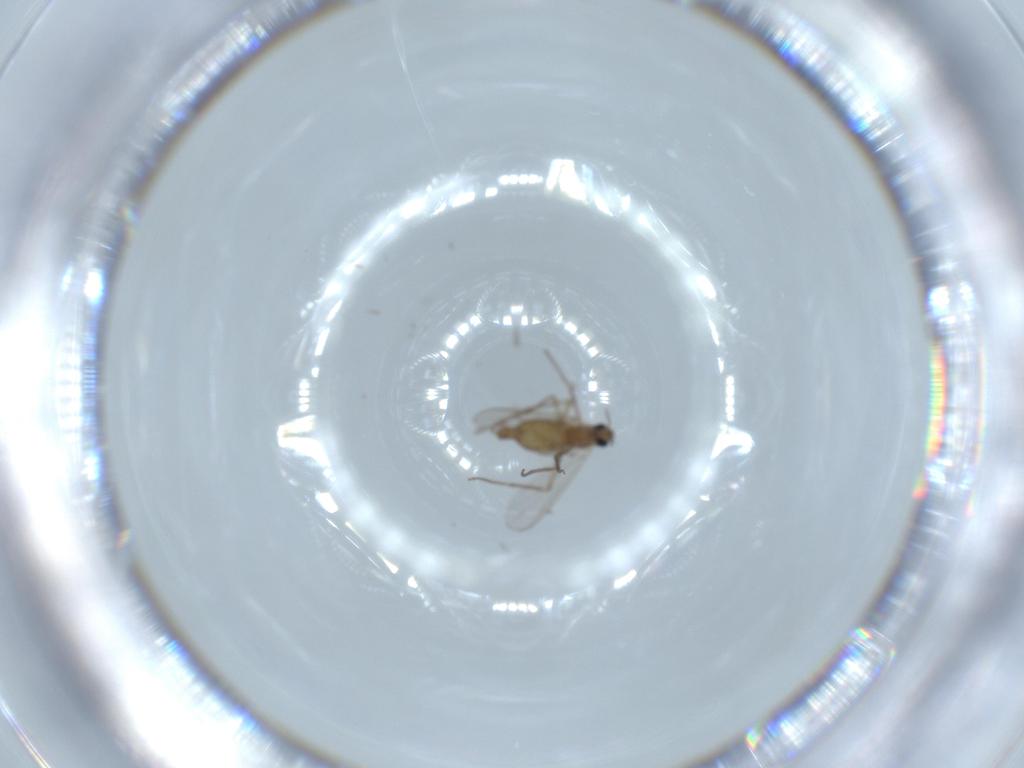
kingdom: Animalia
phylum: Arthropoda
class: Insecta
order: Diptera
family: Chironomidae
